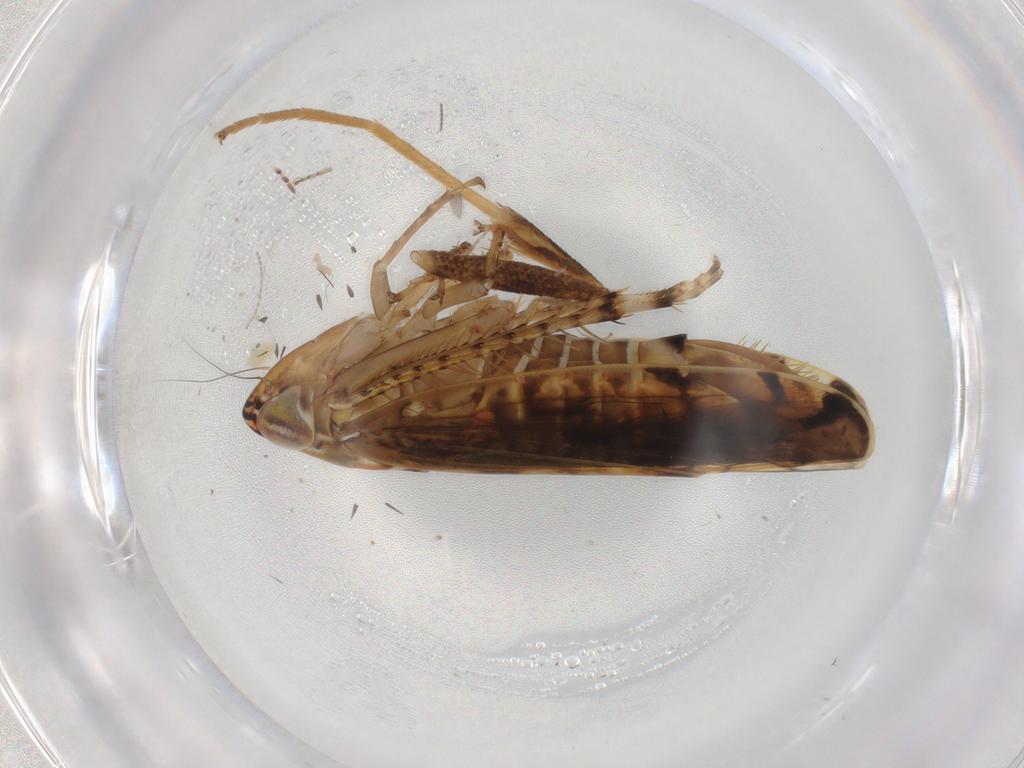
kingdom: Animalia
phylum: Arthropoda
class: Insecta
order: Hemiptera
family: Cicadellidae
